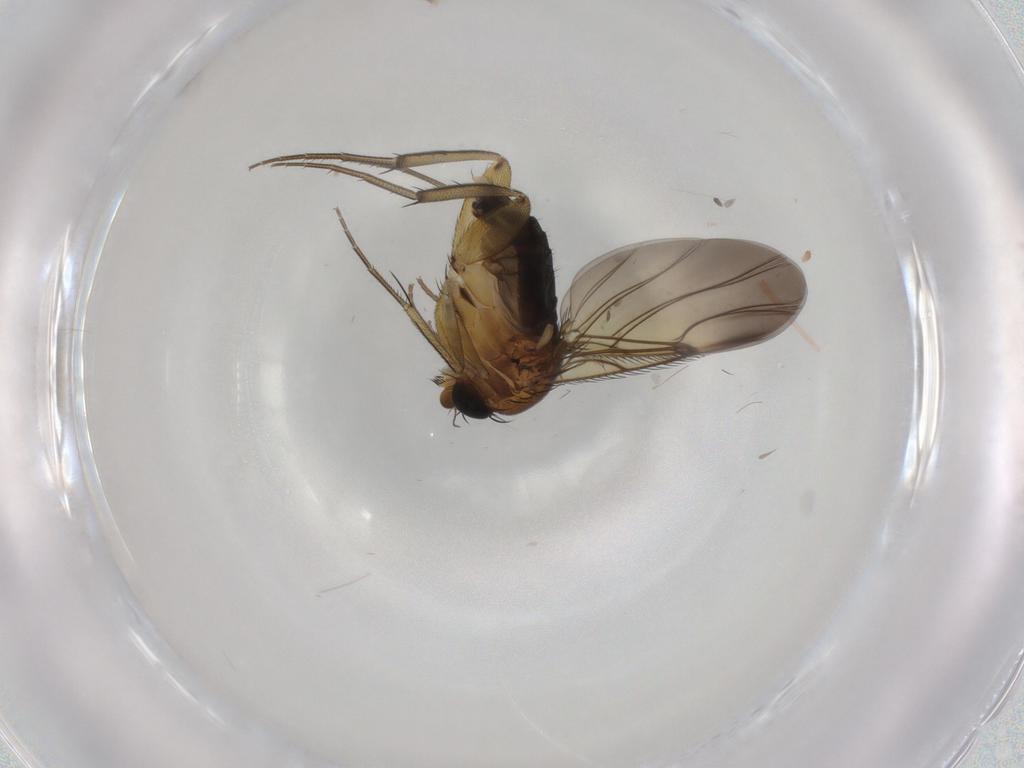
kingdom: Animalia
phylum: Arthropoda
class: Insecta
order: Diptera
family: Phoridae
